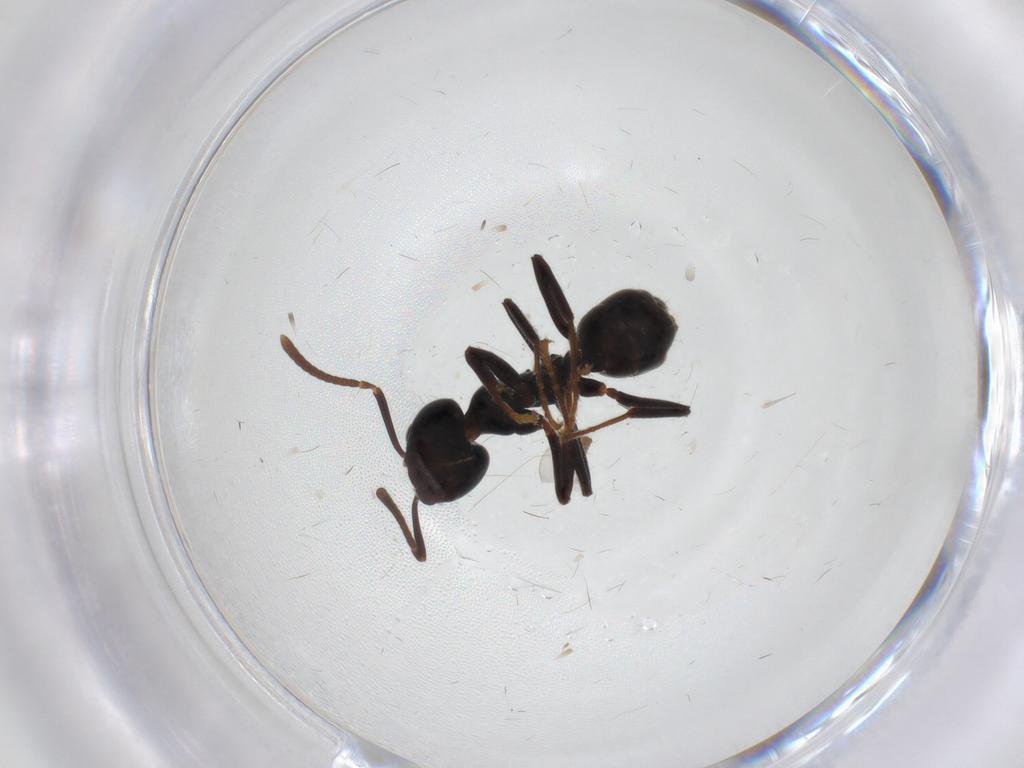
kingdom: Animalia
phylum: Arthropoda
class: Insecta
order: Hymenoptera
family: Formicidae
